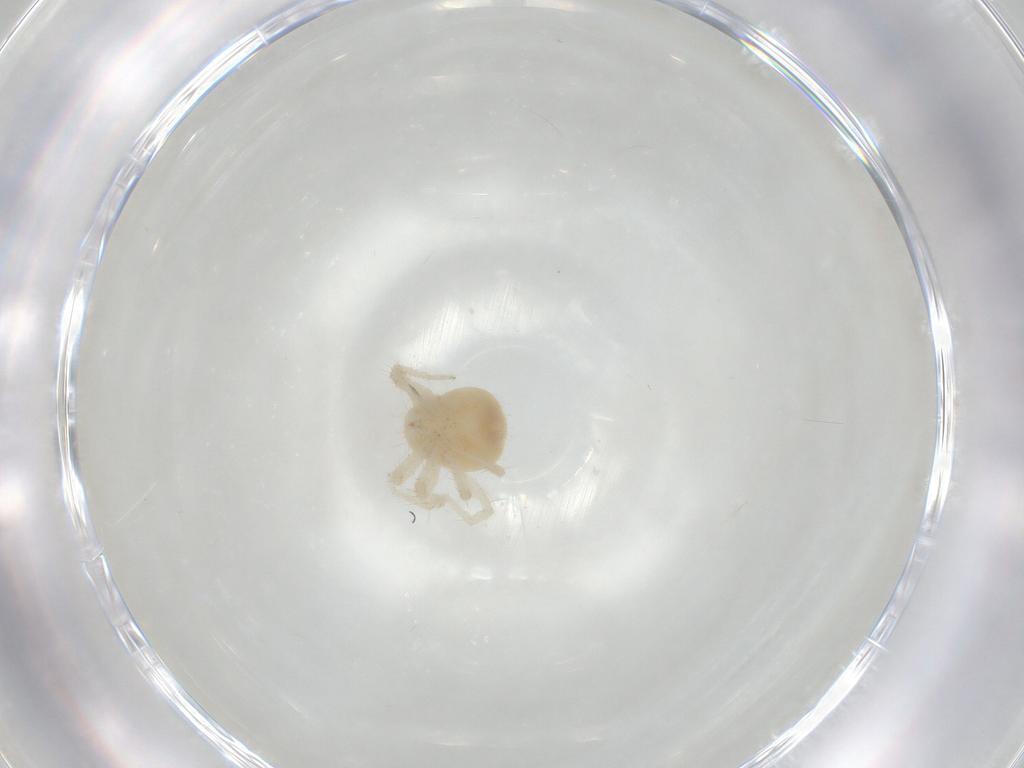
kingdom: Animalia
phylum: Arthropoda
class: Arachnida
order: Trombidiformes
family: Anystidae
